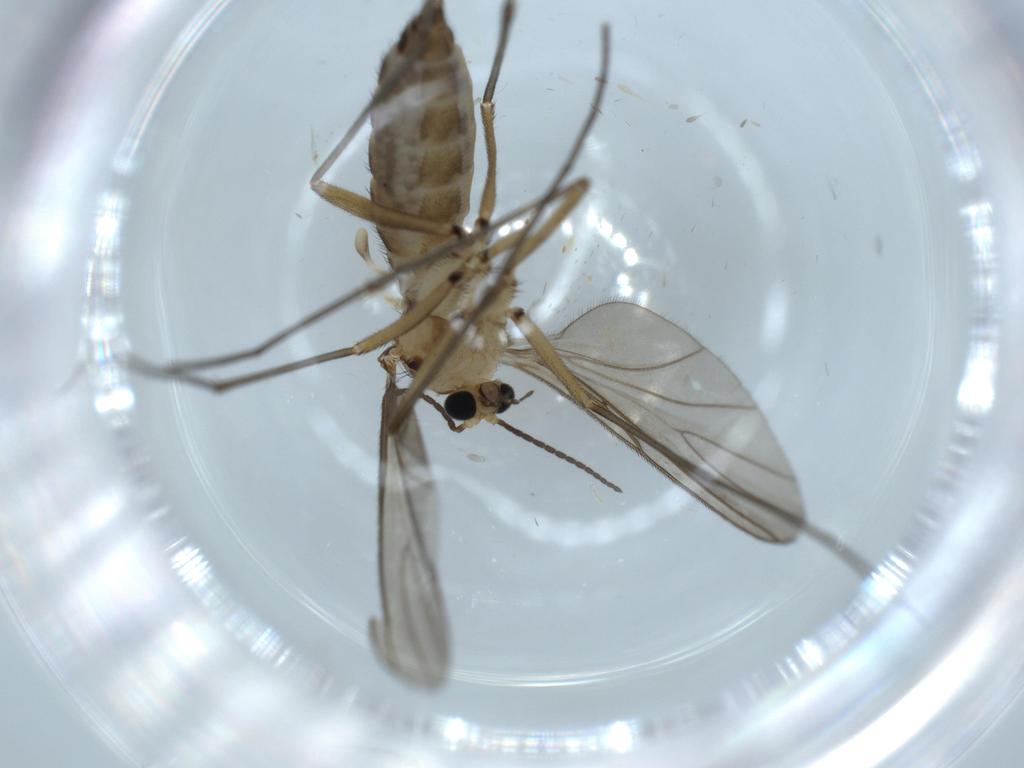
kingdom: Animalia
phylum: Arthropoda
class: Insecta
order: Diptera
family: Sciaridae
